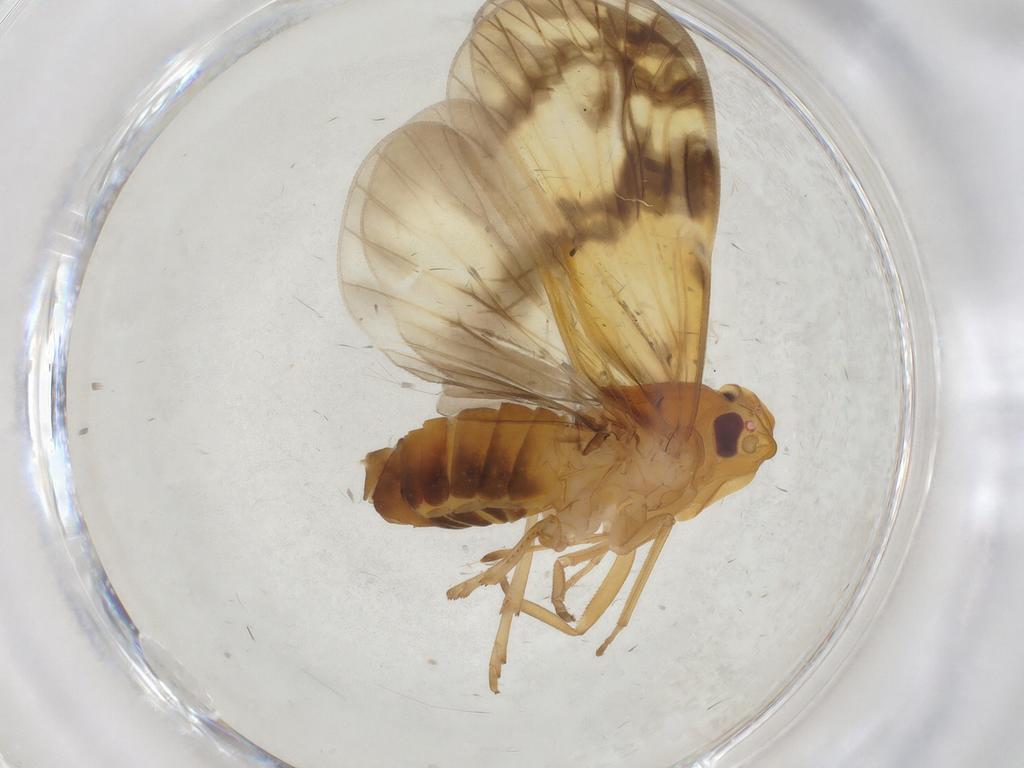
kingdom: Animalia
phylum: Arthropoda
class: Insecta
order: Hemiptera
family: Cixiidae
